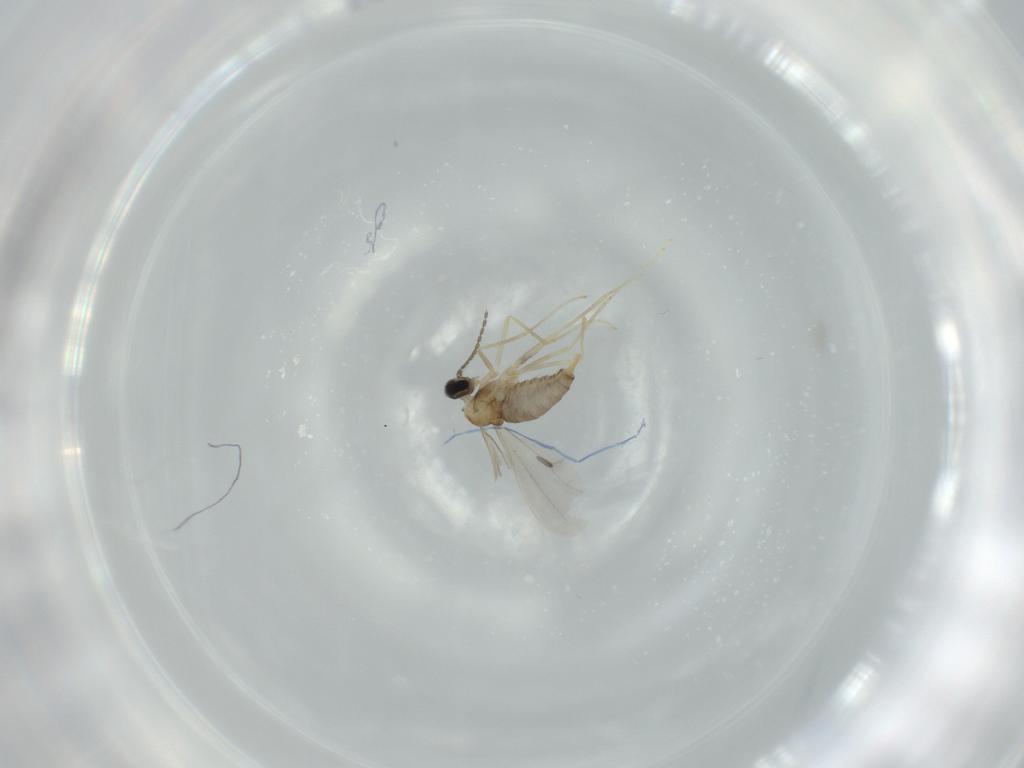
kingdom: Animalia
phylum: Arthropoda
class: Insecta
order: Diptera
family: Cecidomyiidae
